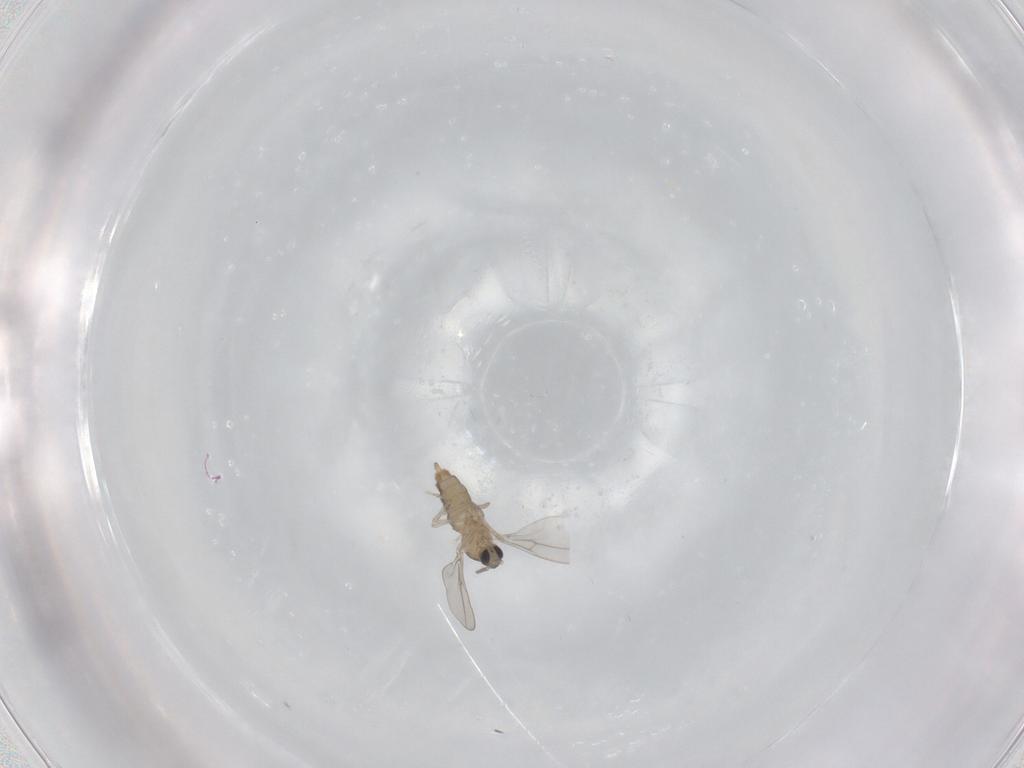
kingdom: Animalia
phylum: Arthropoda
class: Insecta
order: Diptera
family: Cecidomyiidae
